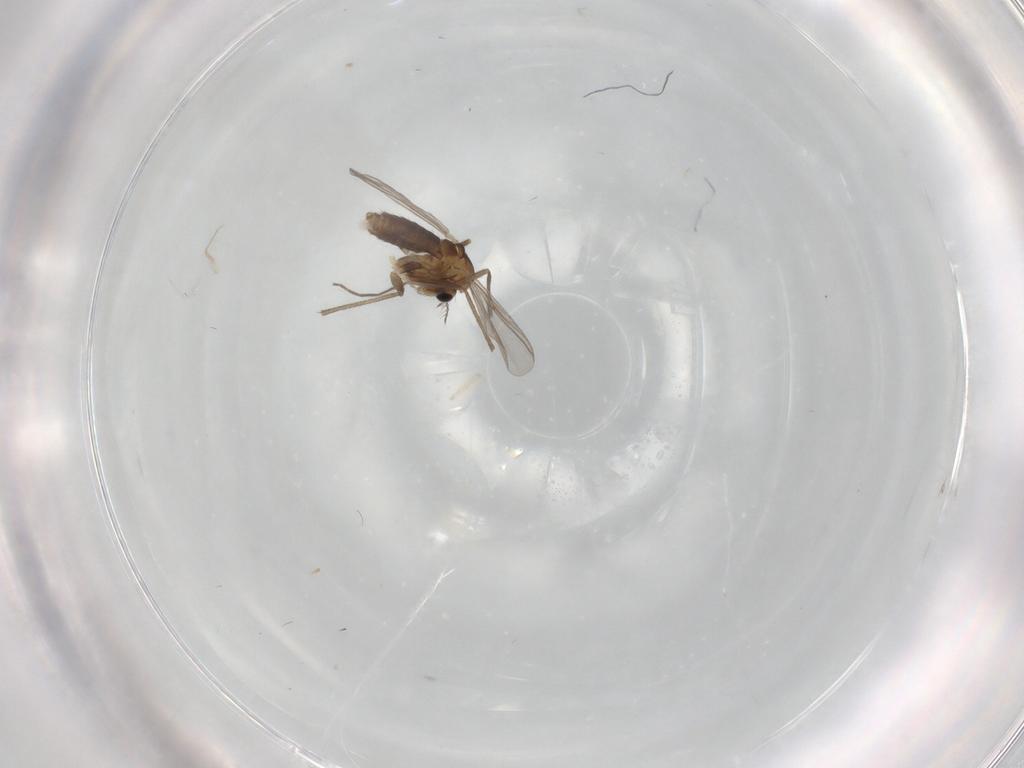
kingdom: Animalia
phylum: Arthropoda
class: Insecta
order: Diptera
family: Chironomidae
